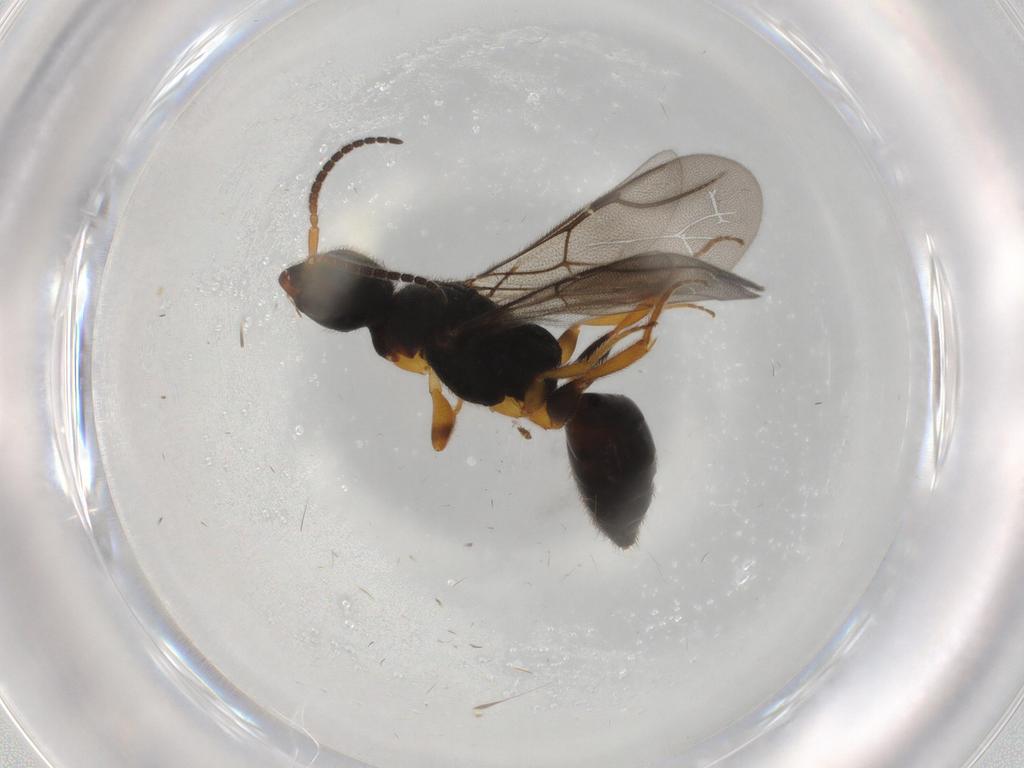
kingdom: Animalia
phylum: Arthropoda
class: Insecta
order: Hymenoptera
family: Bethylidae
